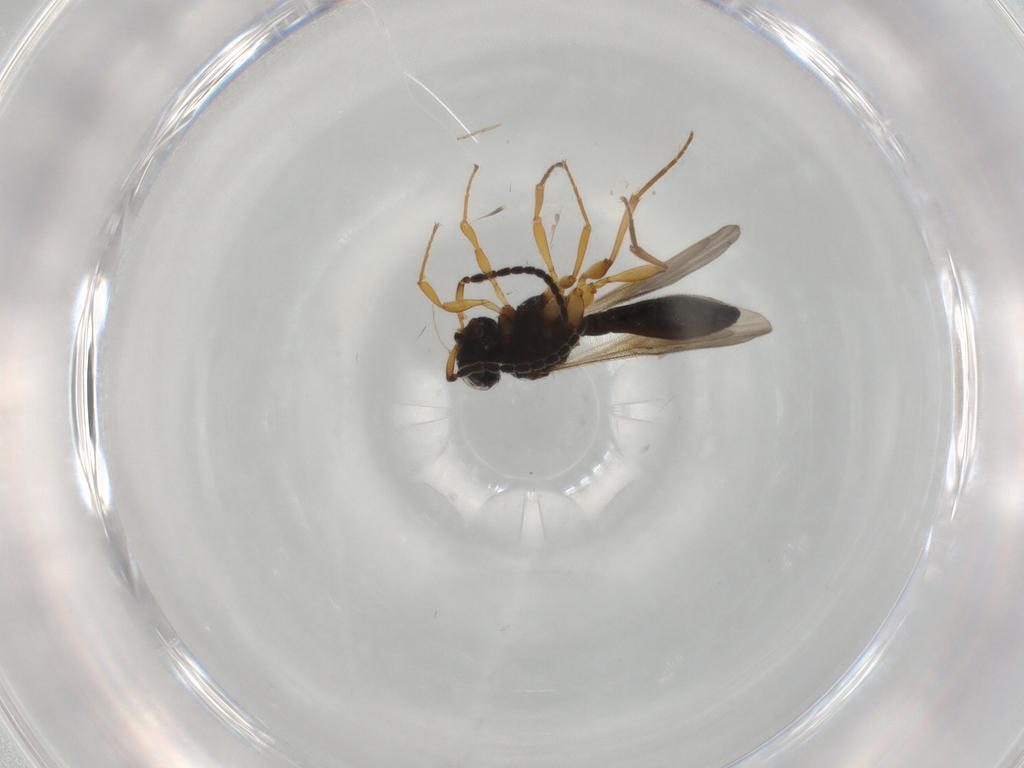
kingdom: Animalia
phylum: Arthropoda
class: Insecta
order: Hymenoptera
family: Scelionidae
